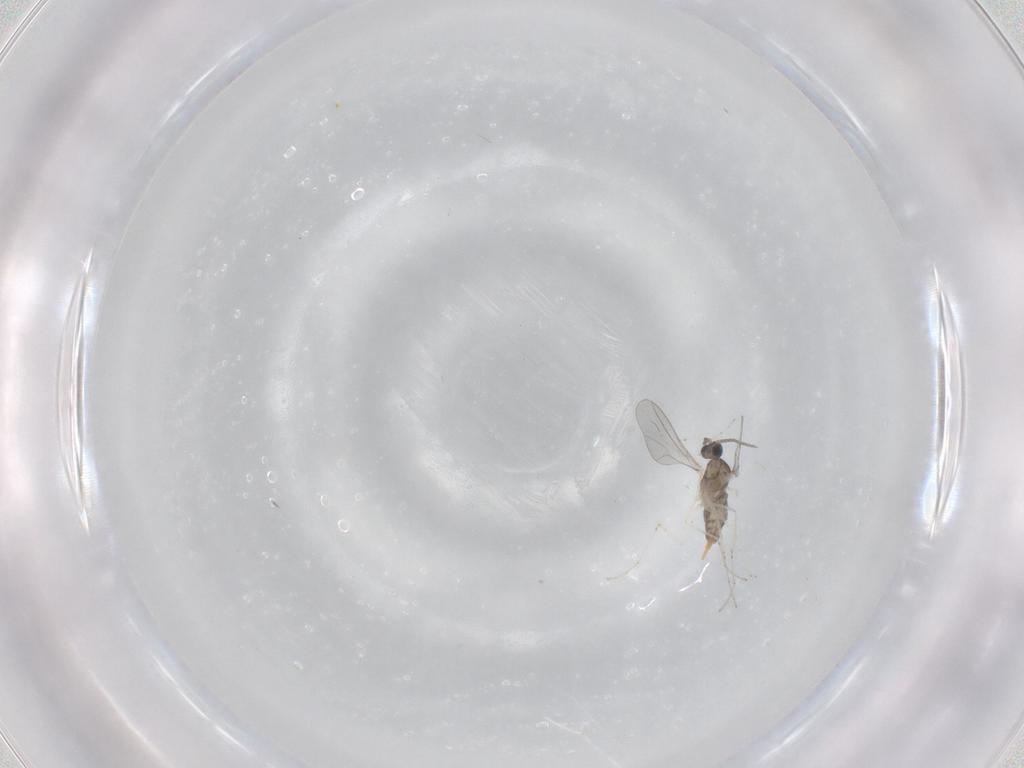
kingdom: Animalia
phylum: Arthropoda
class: Insecta
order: Diptera
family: Cecidomyiidae
